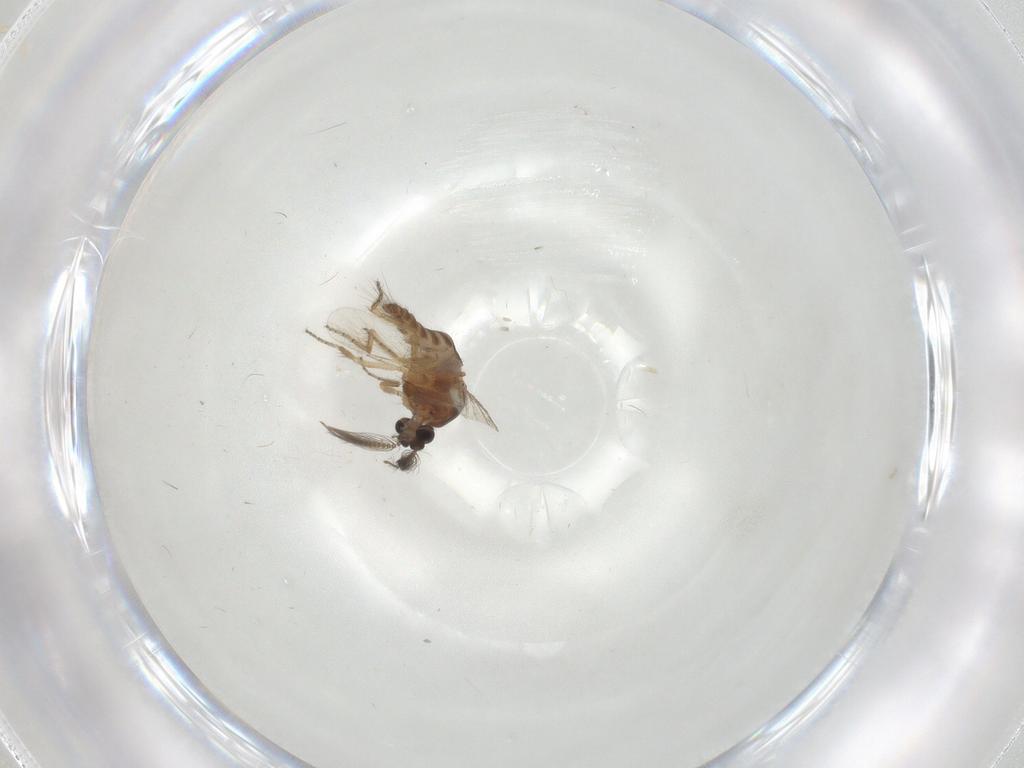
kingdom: Animalia
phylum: Arthropoda
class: Insecta
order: Diptera
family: Ceratopogonidae
